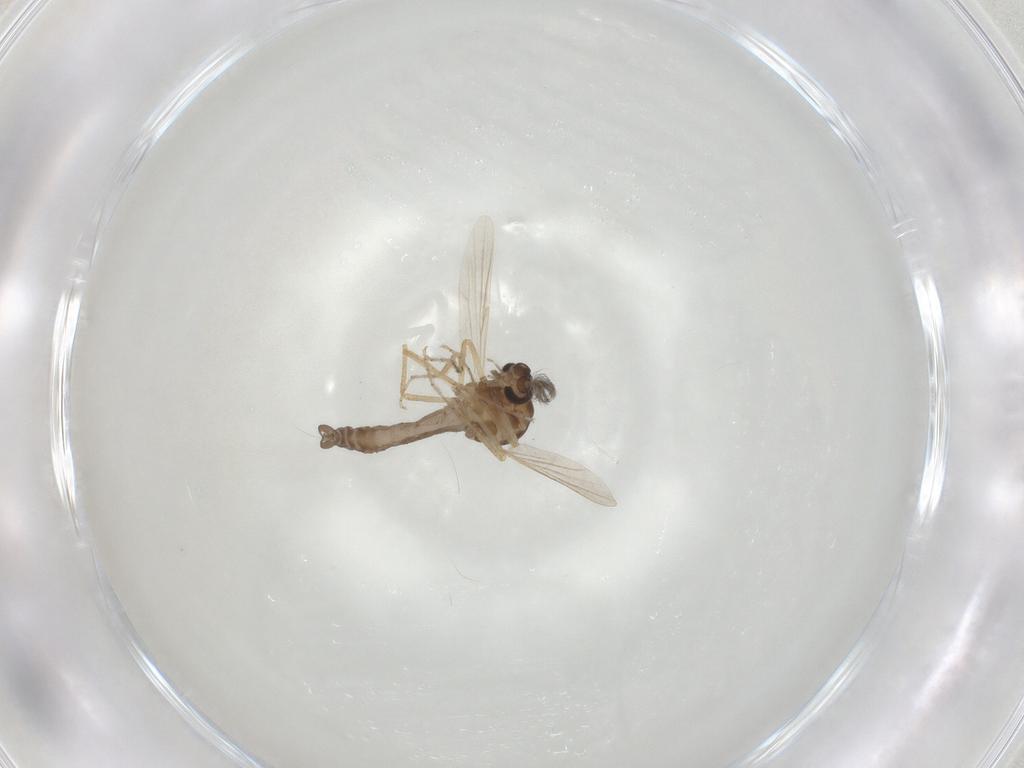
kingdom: Animalia
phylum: Arthropoda
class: Insecta
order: Diptera
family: Ceratopogonidae
